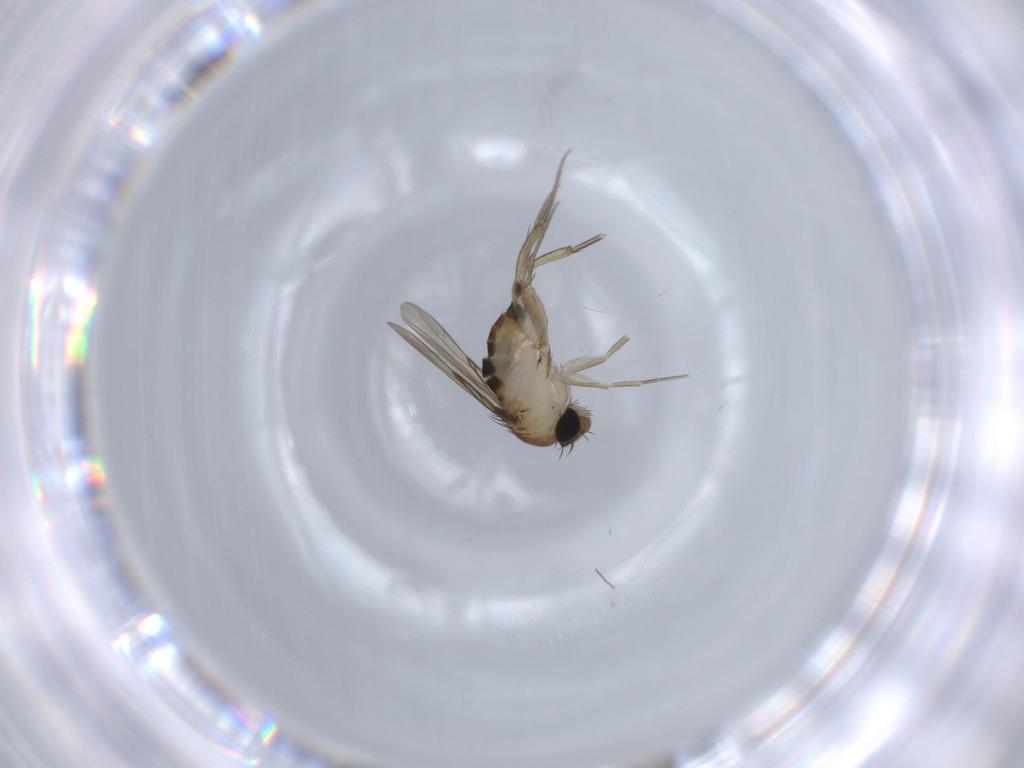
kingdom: Animalia
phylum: Arthropoda
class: Insecta
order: Diptera
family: Phoridae
